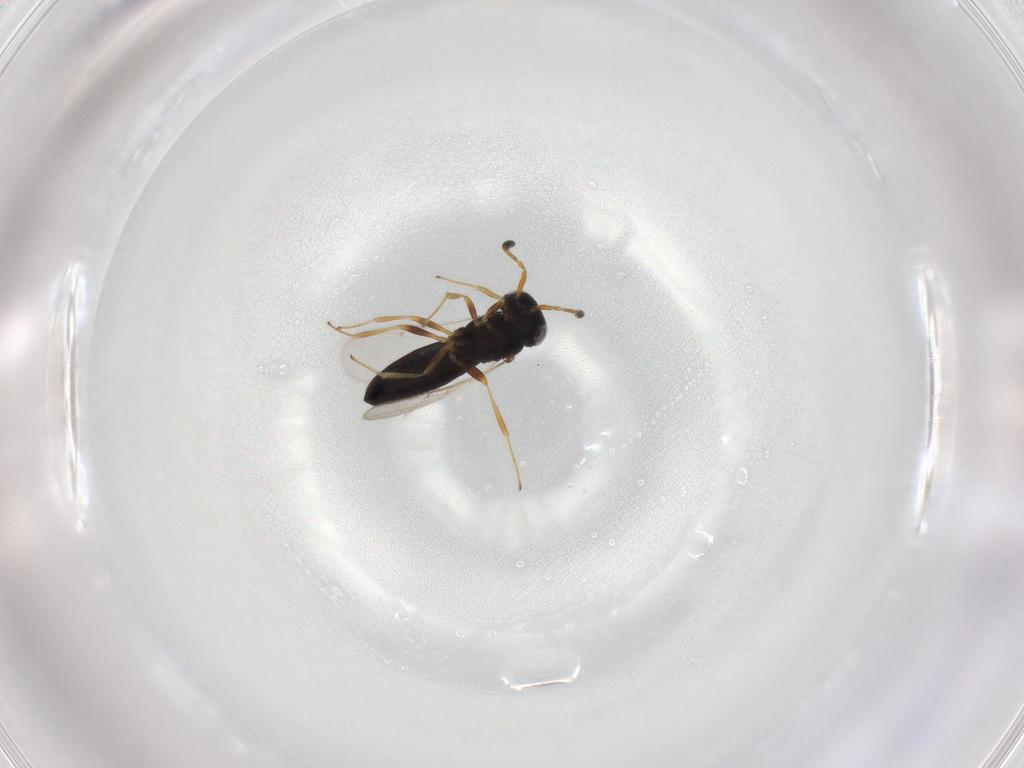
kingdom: Animalia
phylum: Arthropoda
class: Insecta
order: Hymenoptera
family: Scelionidae
